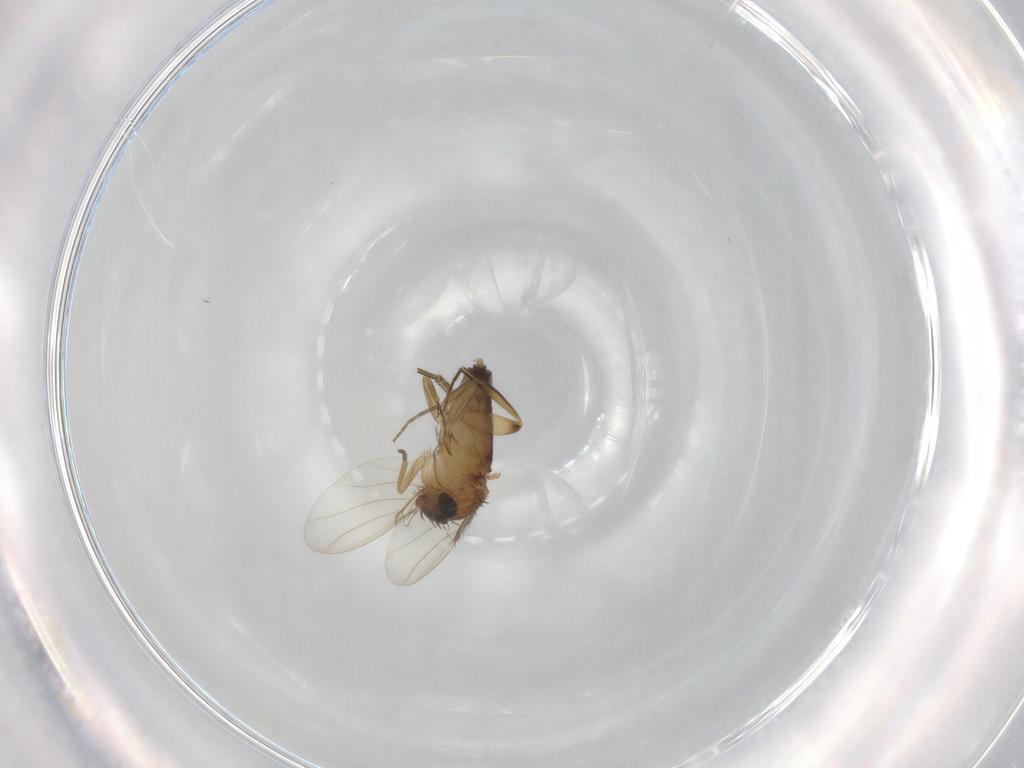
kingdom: Animalia
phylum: Arthropoda
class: Insecta
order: Diptera
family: Phoridae
